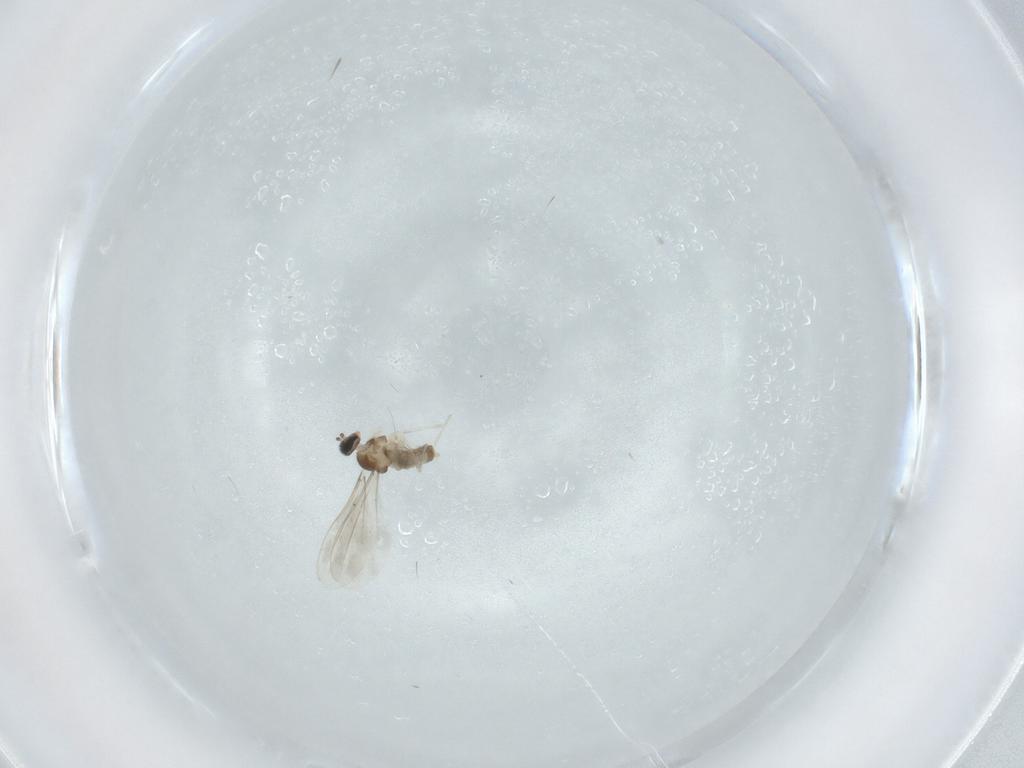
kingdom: Animalia
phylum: Arthropoda
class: Insecta
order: Diptera
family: Cecidomyiidae
